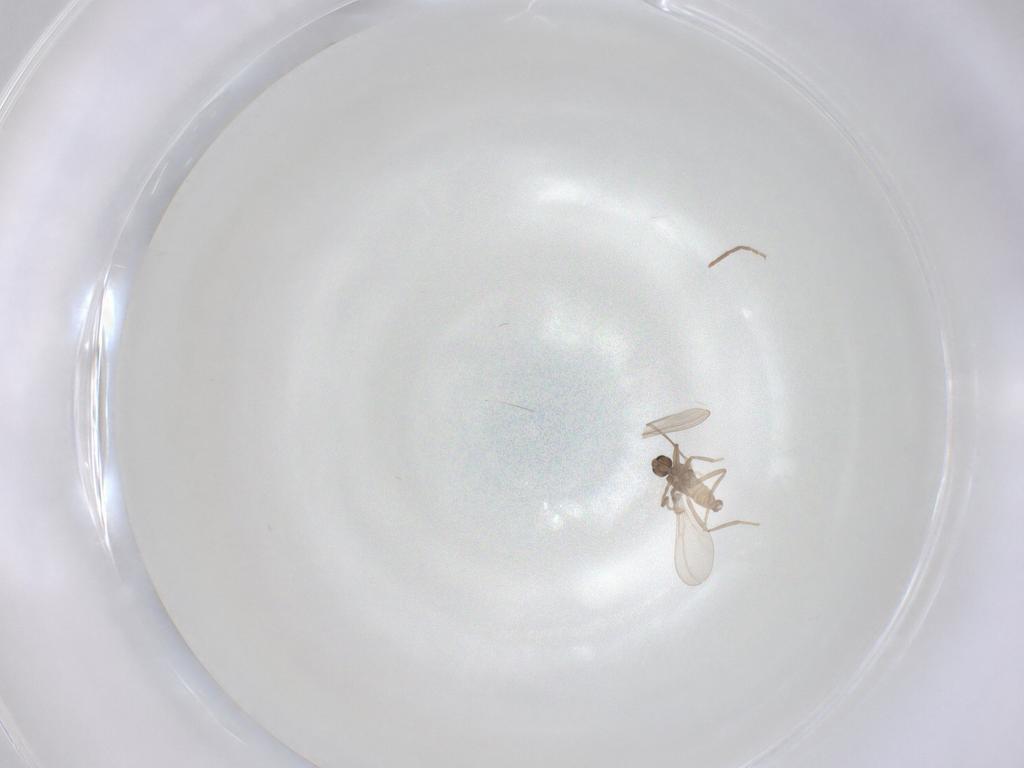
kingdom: Animalia
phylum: Arthropoda
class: Insecta
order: Diptera
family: Cecidomyiidae
